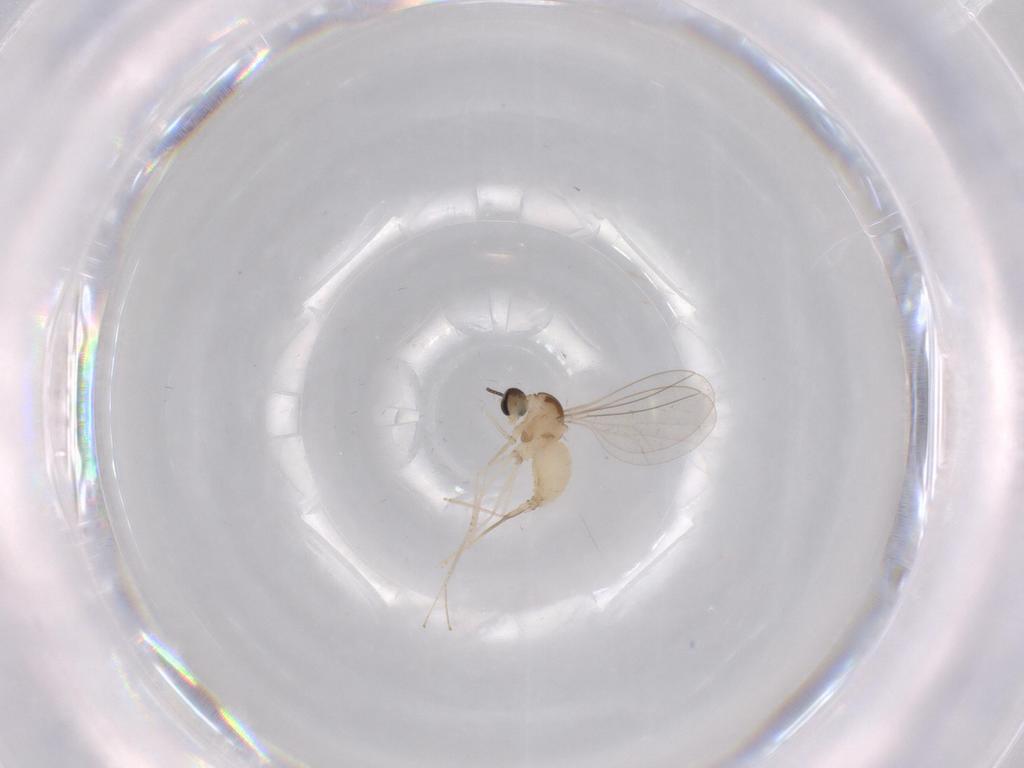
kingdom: Animalia
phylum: Arthropoda
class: Insecta
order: Diptera
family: Cecidomyiidae
